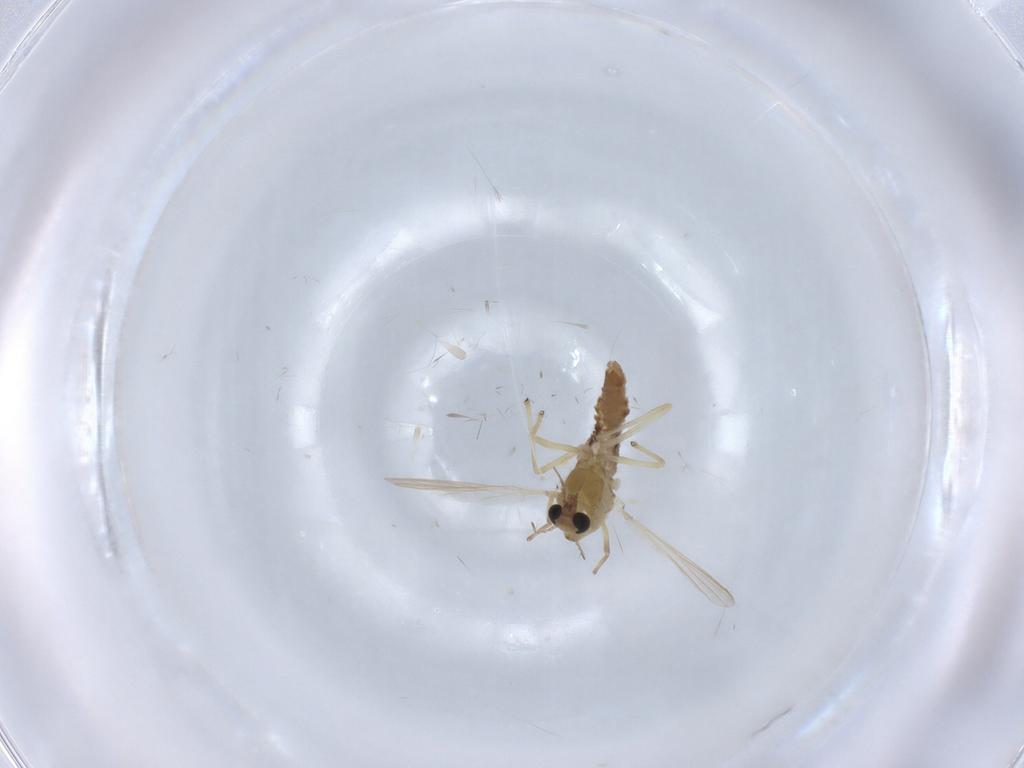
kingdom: Animalia
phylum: Arthropoda
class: Insecta
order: Diptera
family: Chironomidae
